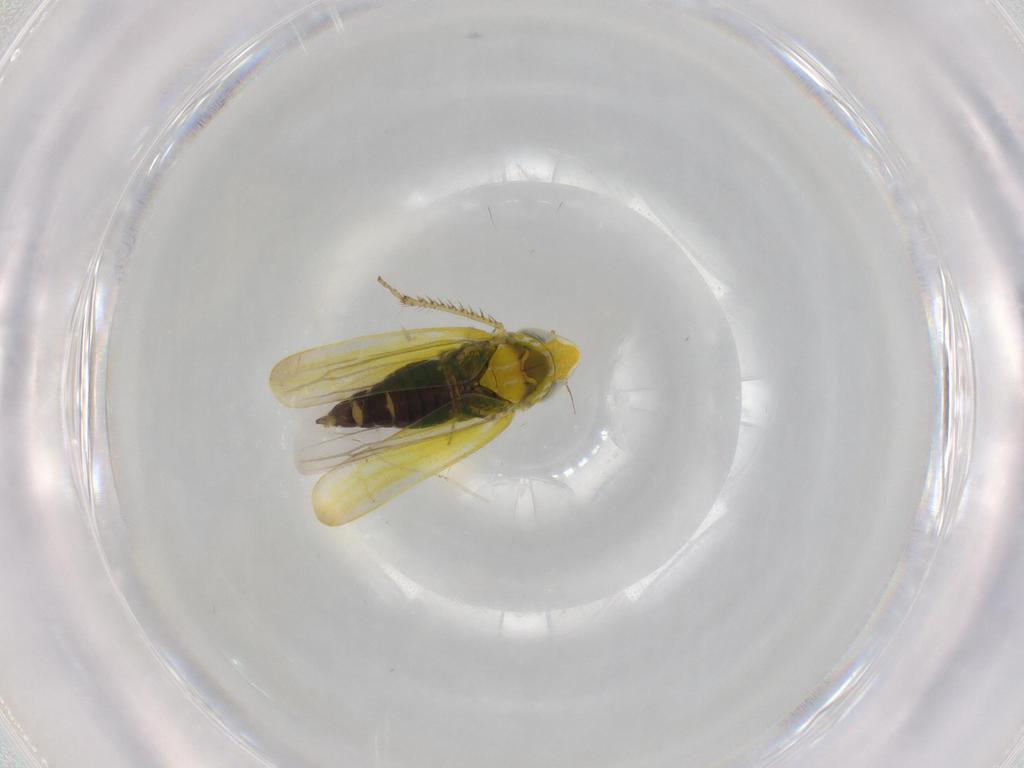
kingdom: Animalia
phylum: Arthropoda
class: Insecta
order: Hemiptera
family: Cicadellidae
